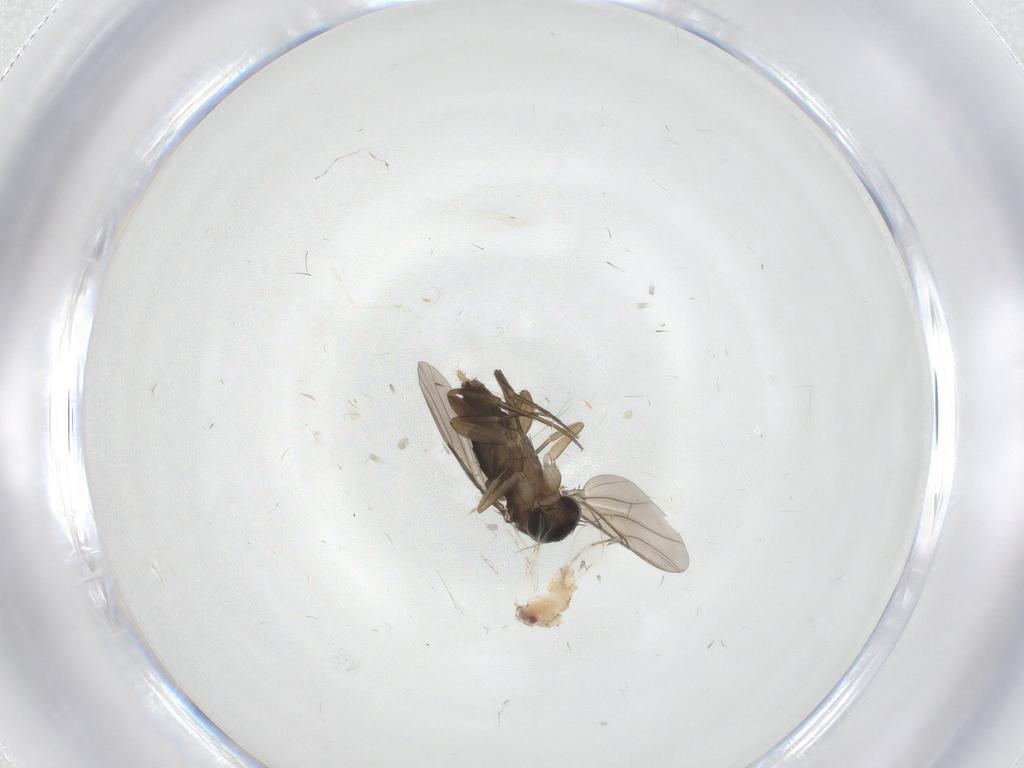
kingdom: Animalia
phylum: Arthropoda
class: Insecta
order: Diptera
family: Phoridae
